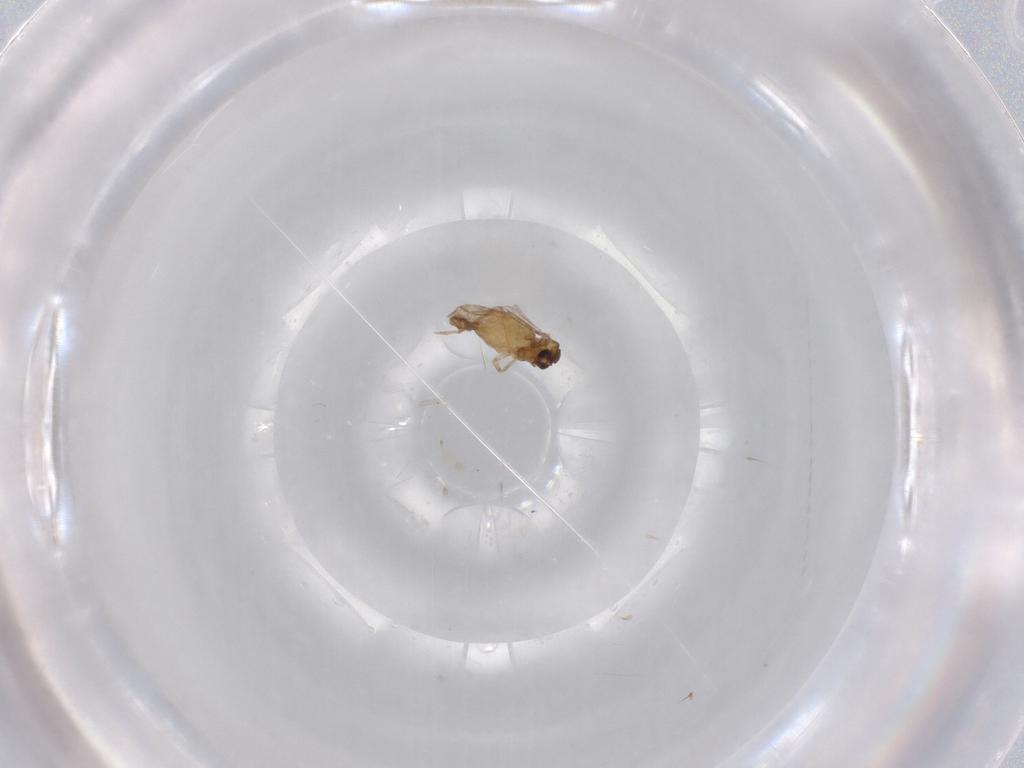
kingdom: Animalia
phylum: Arthropoda
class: Insecta
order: Diptera
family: Chironomidae
